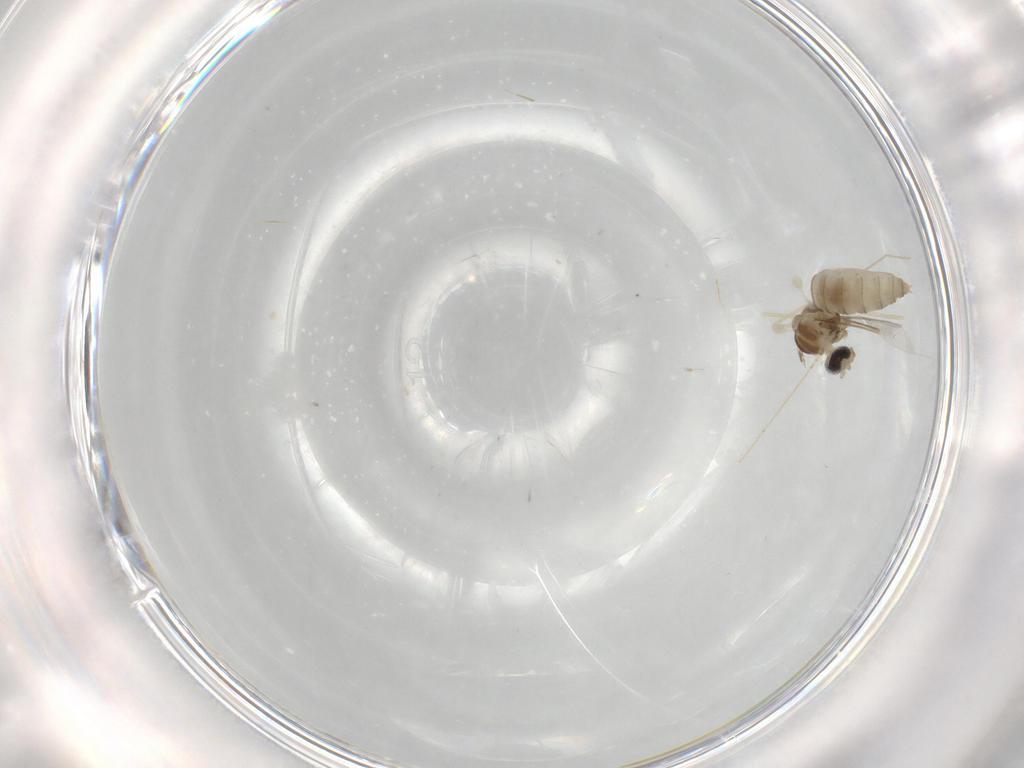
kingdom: Animalia
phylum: Arthropoda
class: Insecta
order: Diptera
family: Cecidomyiidae
